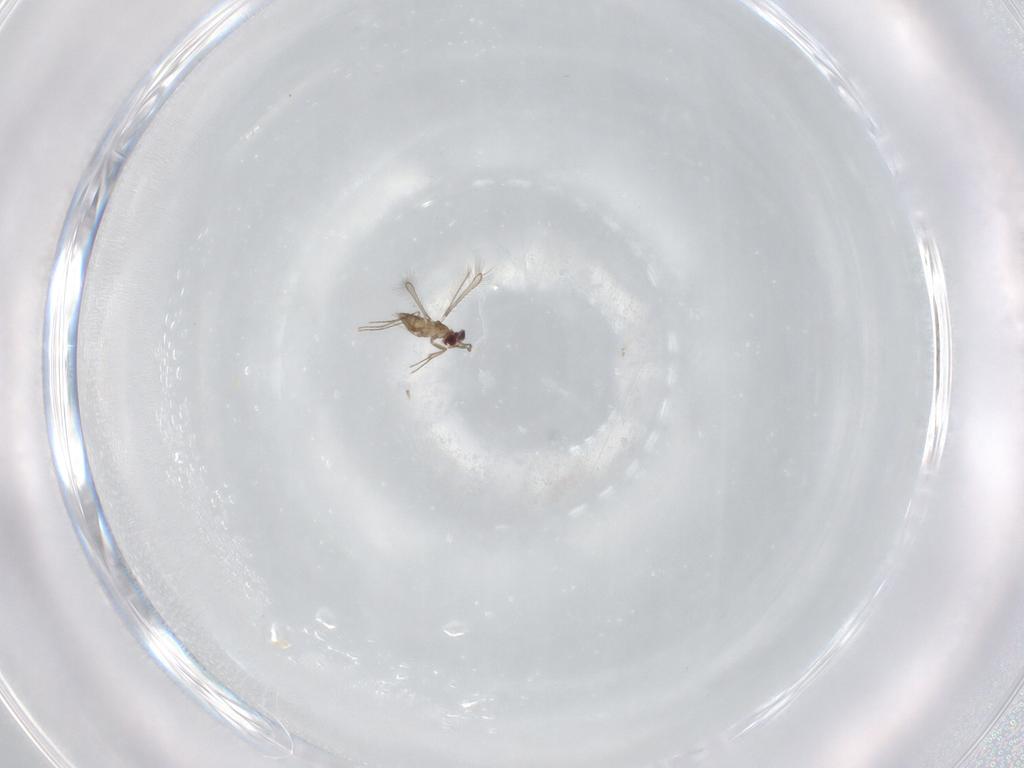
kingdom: Animalia
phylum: Arthropoda
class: Insecta
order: Hymenoptera
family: Mymaridae
